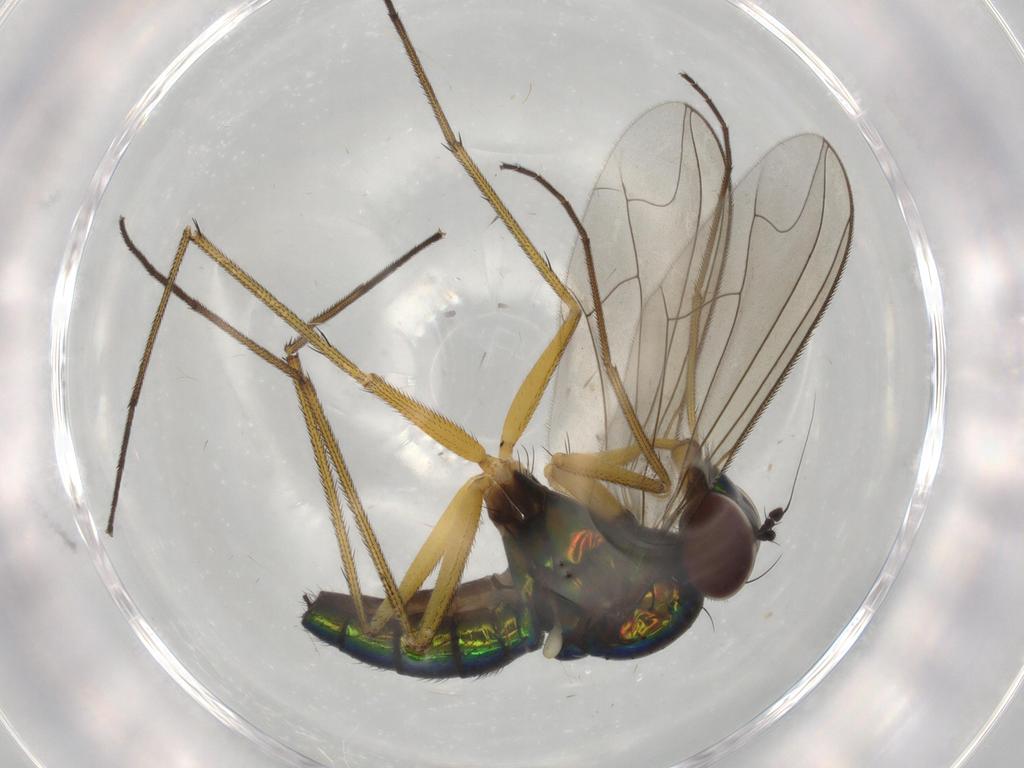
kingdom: Animalia
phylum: Arthropoda
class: Insecta
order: Diptera
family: Dolichopodidae
